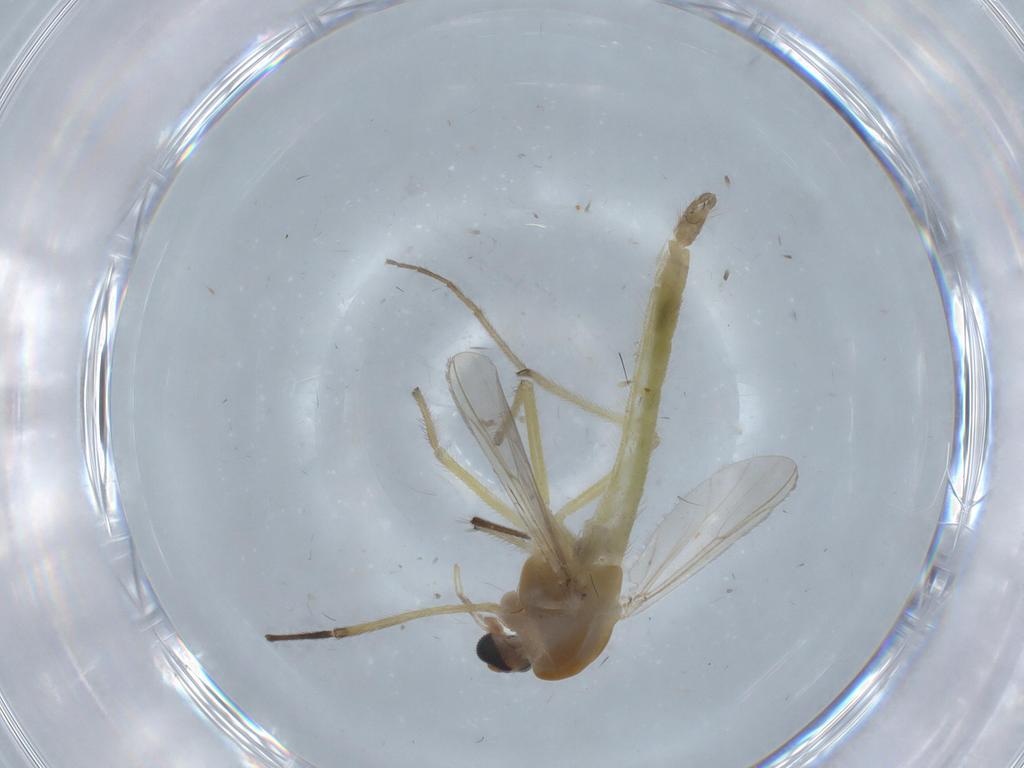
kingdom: Animalia
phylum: Arthropoda
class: Insecta
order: Diptera
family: Chironomidae
